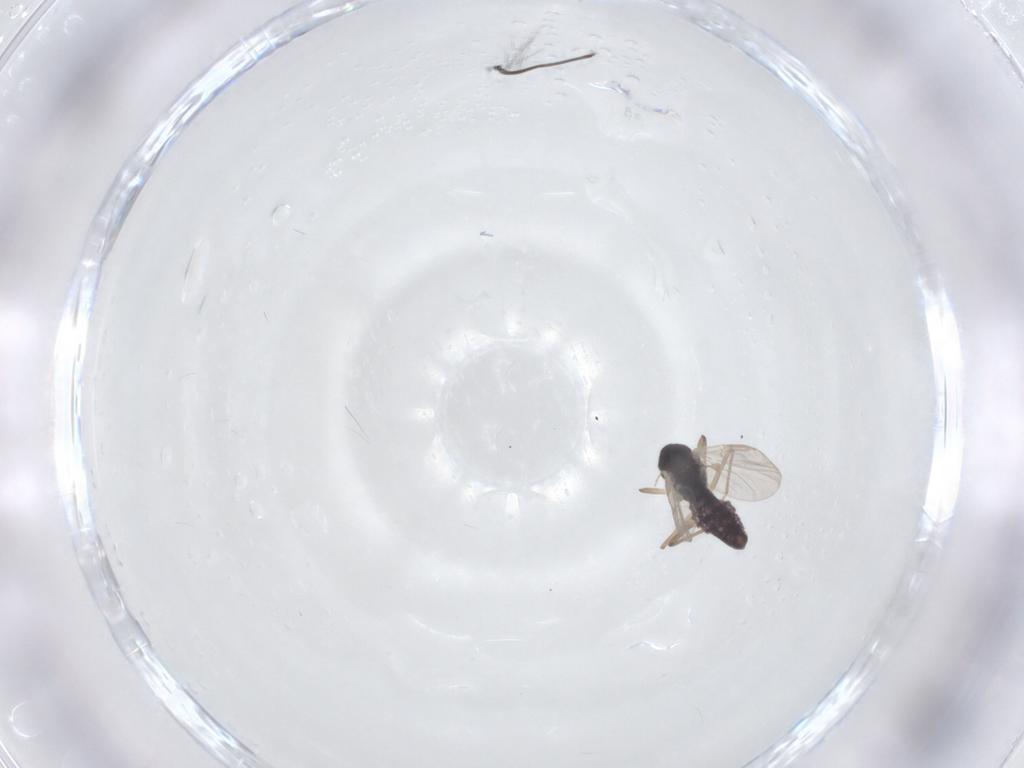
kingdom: Animalia
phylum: Arthropoda
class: Insecta
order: Diptera
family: Chironomidae
